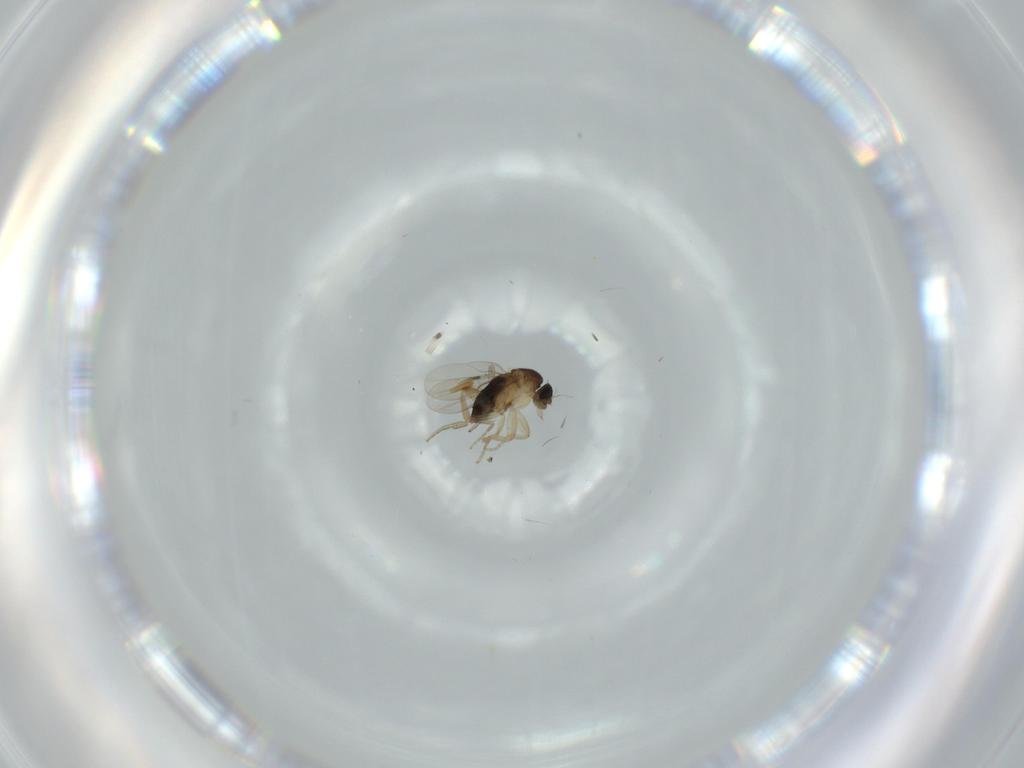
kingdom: Animalia
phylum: Arthropoda
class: Insecta
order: Diptera
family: Phoridae
